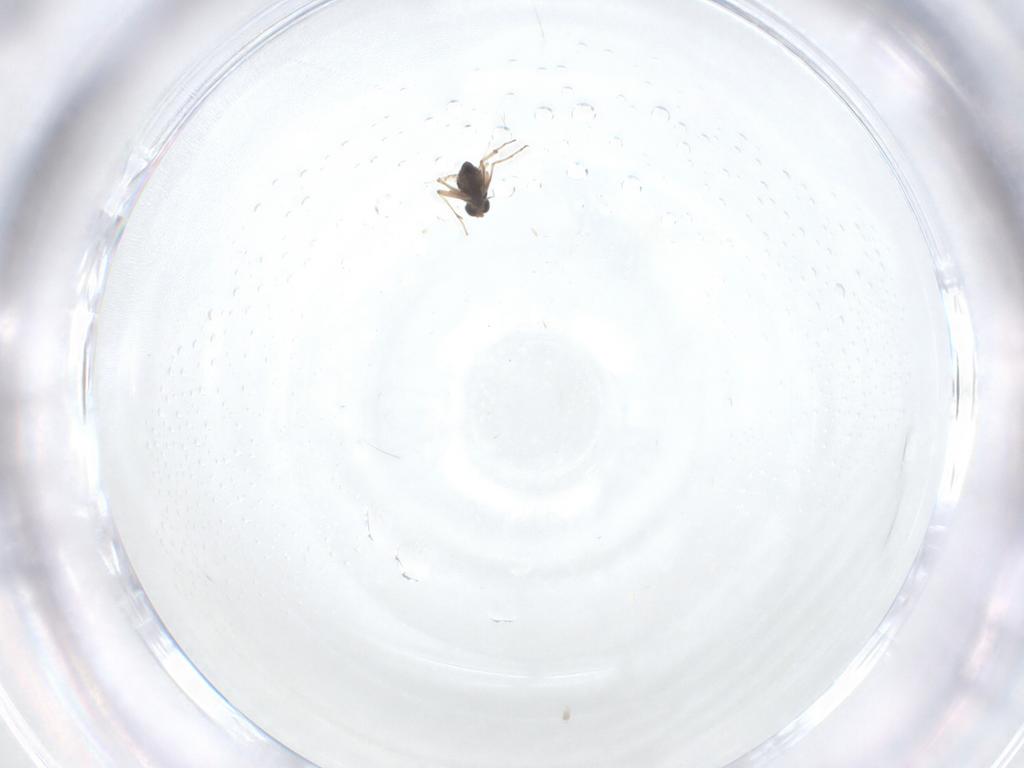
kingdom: Animalia
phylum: Arthropoda
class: Insecta
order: Diptera
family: Chironomidae
